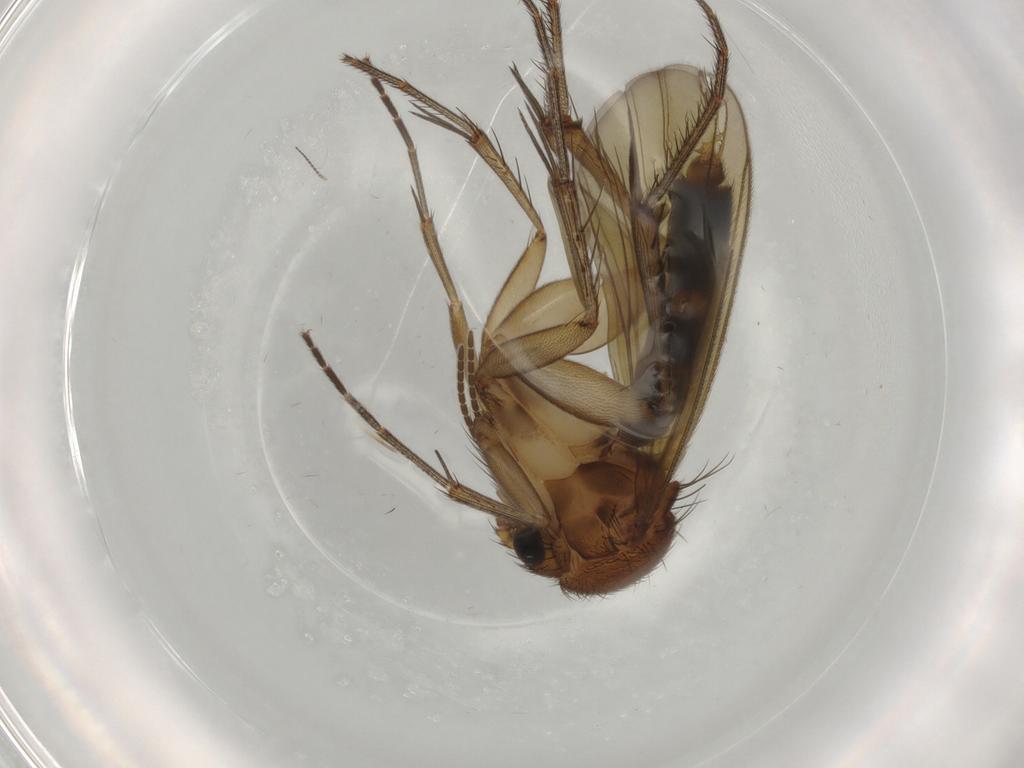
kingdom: Animalia
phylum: Arthropoda
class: Insecta
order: Diptera
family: Mycetophilidae
